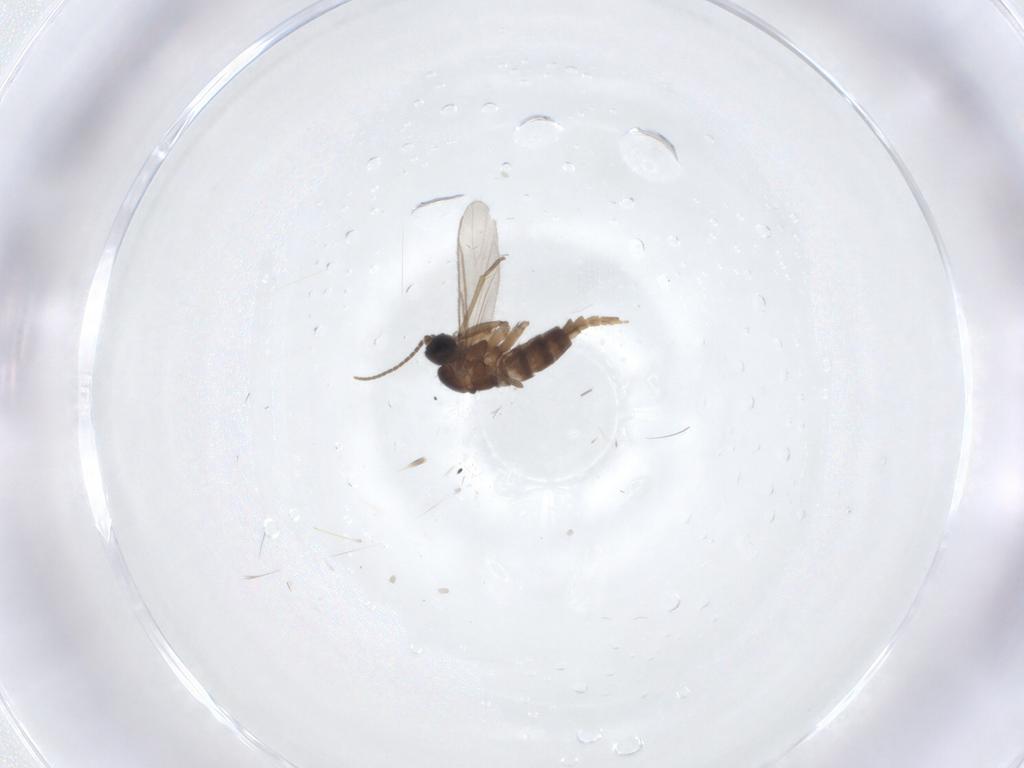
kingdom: Animalia
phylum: Arthropoda
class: Insecta
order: Diptera
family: Sciaridae
